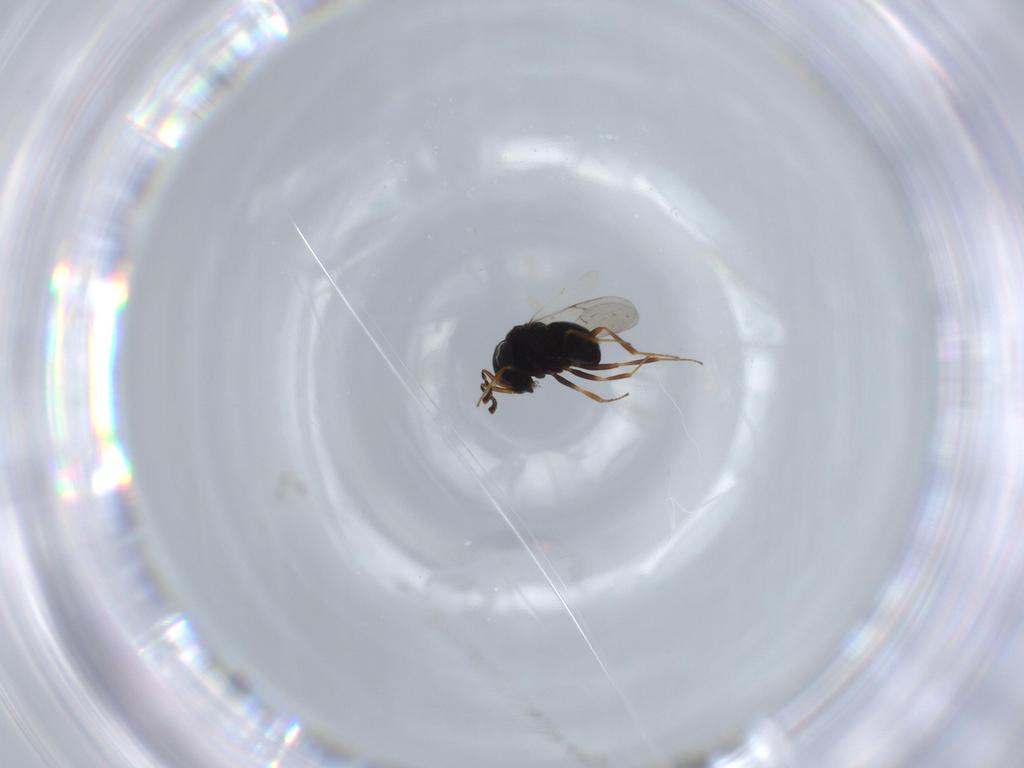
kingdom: Animalia
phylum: Arthropoda
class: Insecta
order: Hymenoptera
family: Scelionidae
